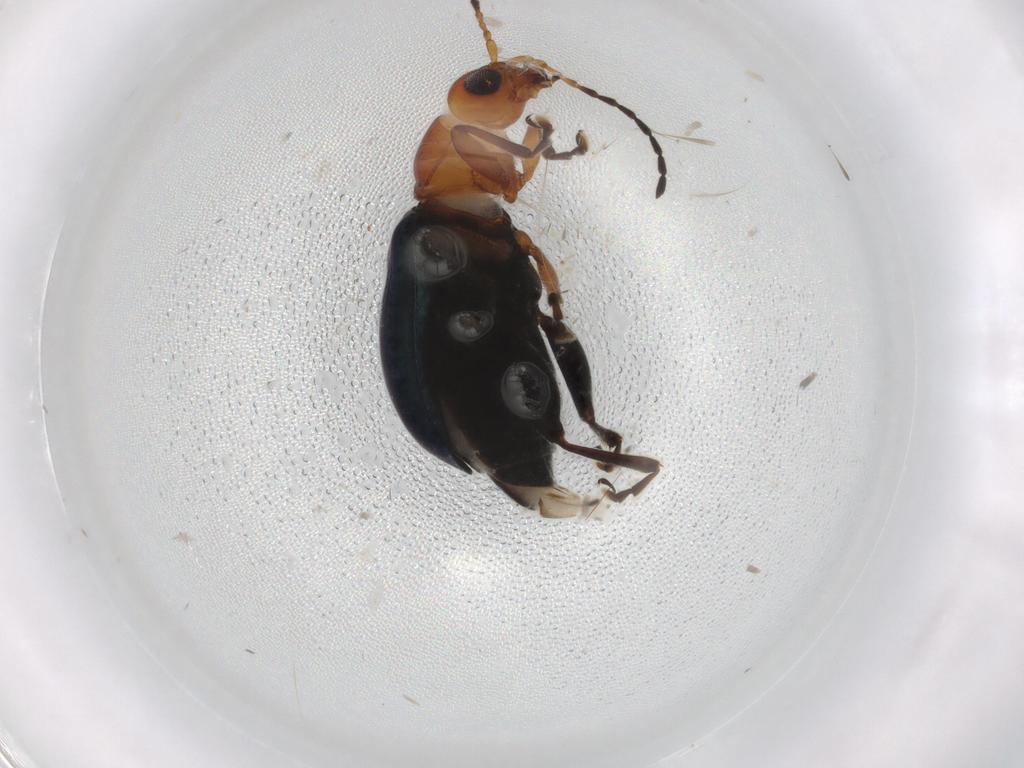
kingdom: Animalia
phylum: Arthropoda
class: Insecta
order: Coleoptera
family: Chrysomelidae
